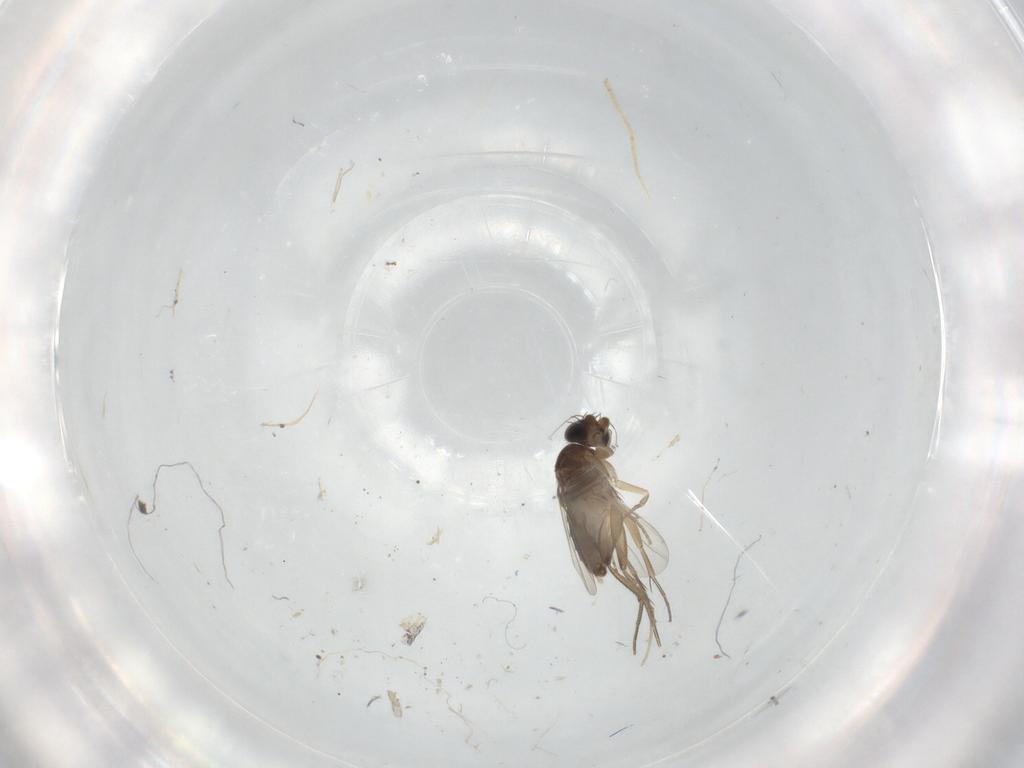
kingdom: Animalia
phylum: Arthropoda
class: Insecta
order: Diptera
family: Phoridae
